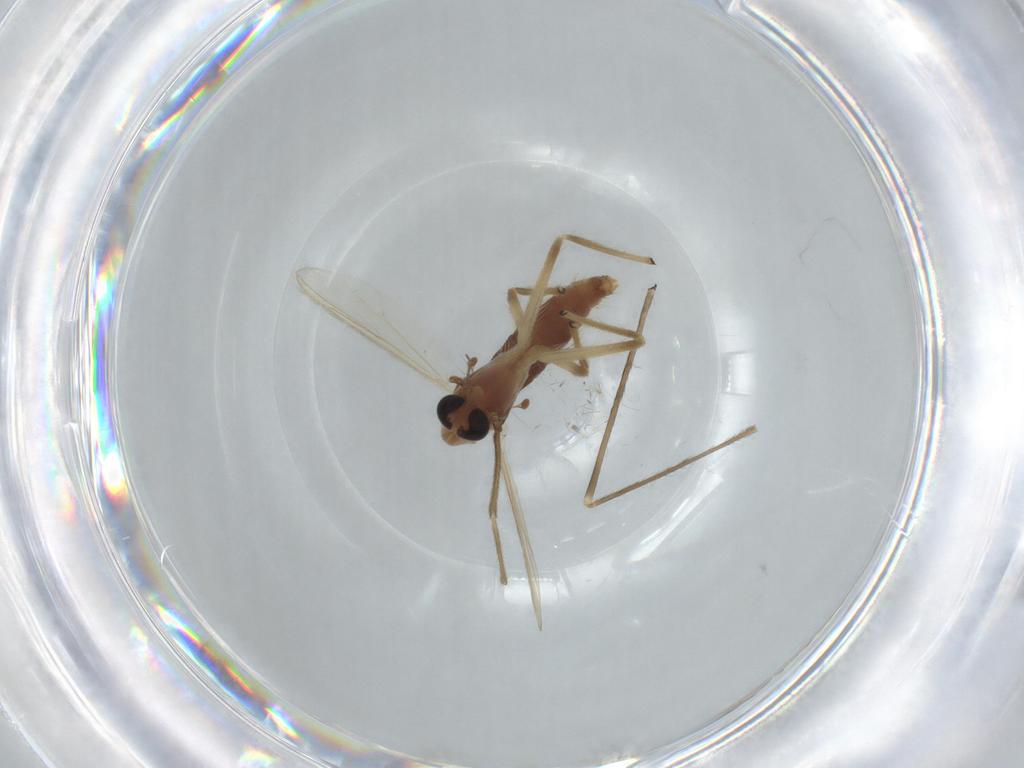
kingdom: Animalia
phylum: Arthropoda
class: Insecta
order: Diptera
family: Chironomidae
